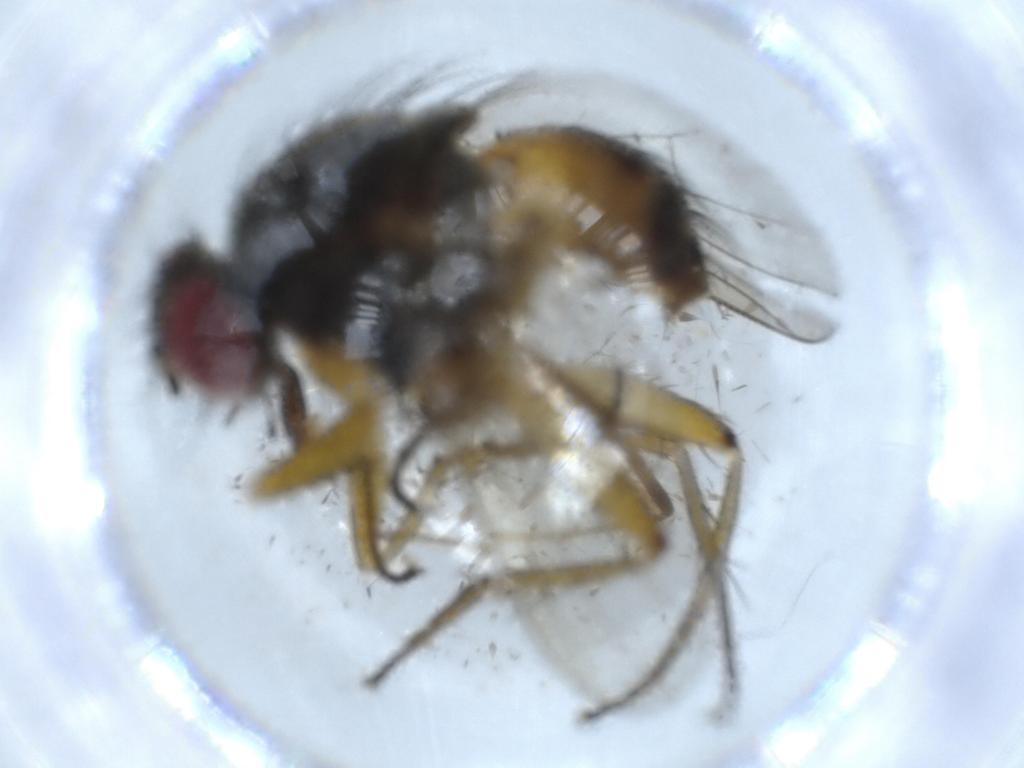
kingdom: Animalia
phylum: Arthropoda
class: Insecta
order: Diptera
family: Muscidae
